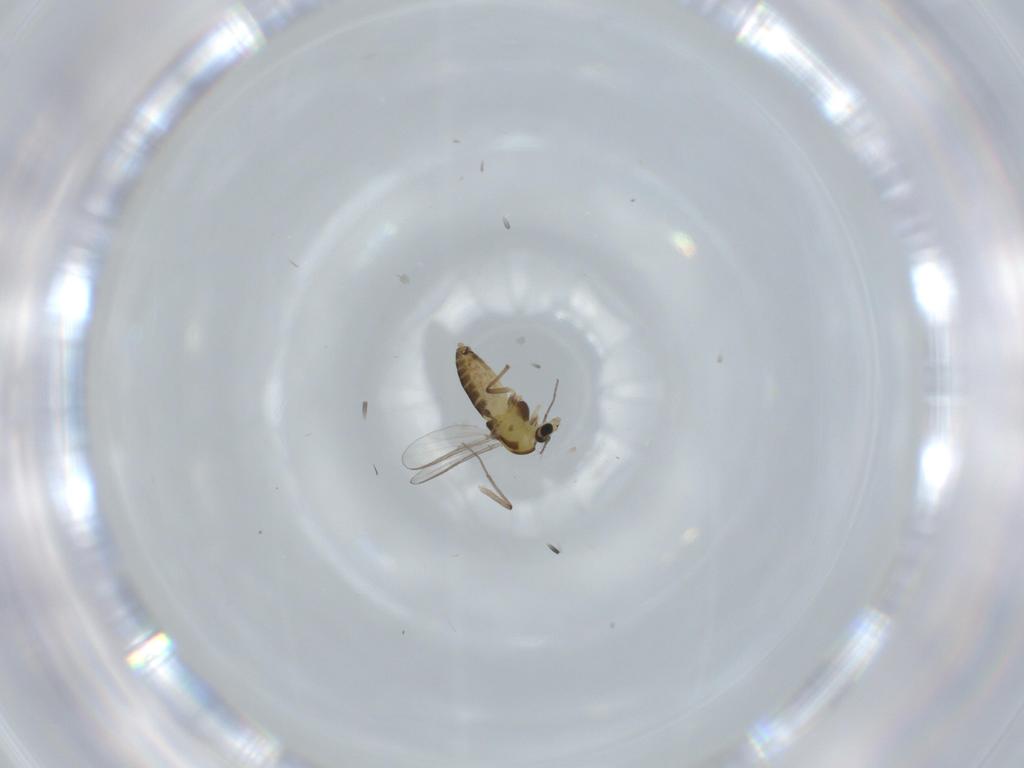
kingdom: Animalia
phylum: Arthropoda
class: Insecta
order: Diptera
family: Chironomidae
